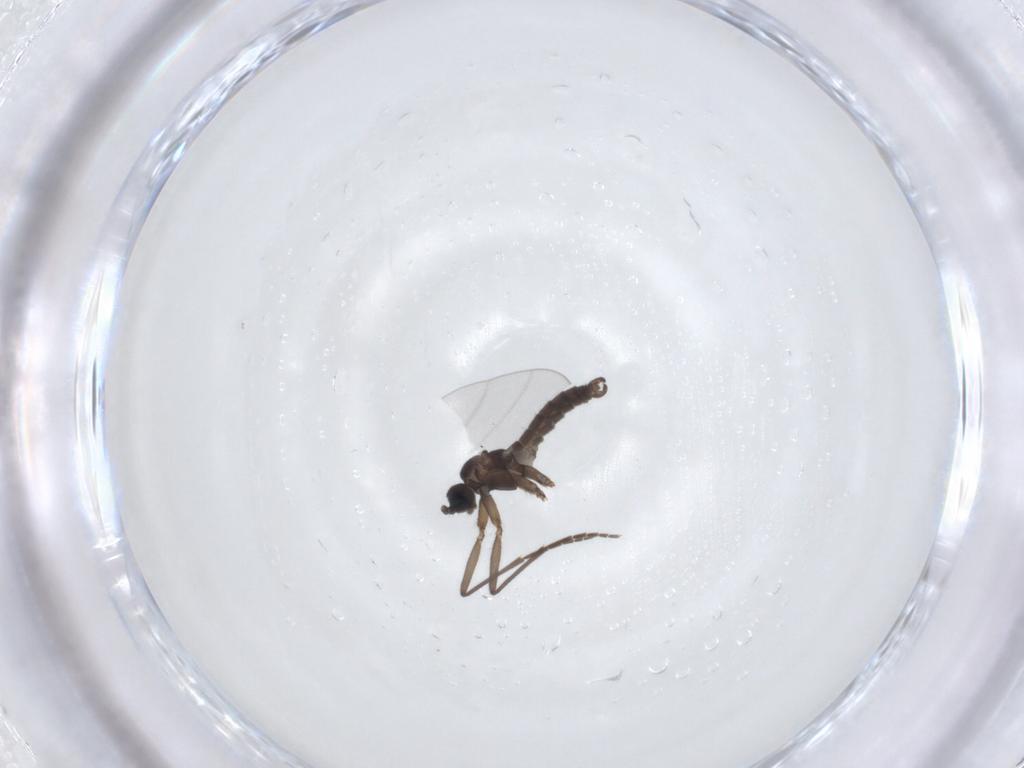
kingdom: Animalia
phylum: Arthropoda
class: Insecta
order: Diptera
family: Sciaridae
